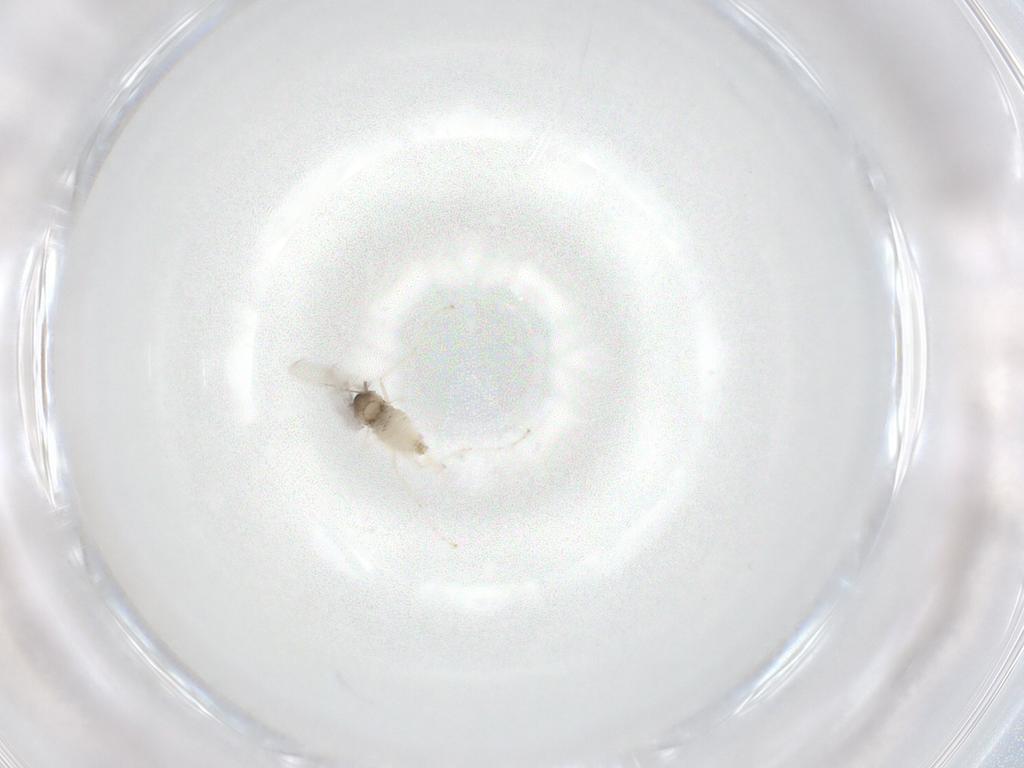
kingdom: Animalia
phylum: Arthropoda
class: Insecta
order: Diptera
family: Cecidomyiidae
